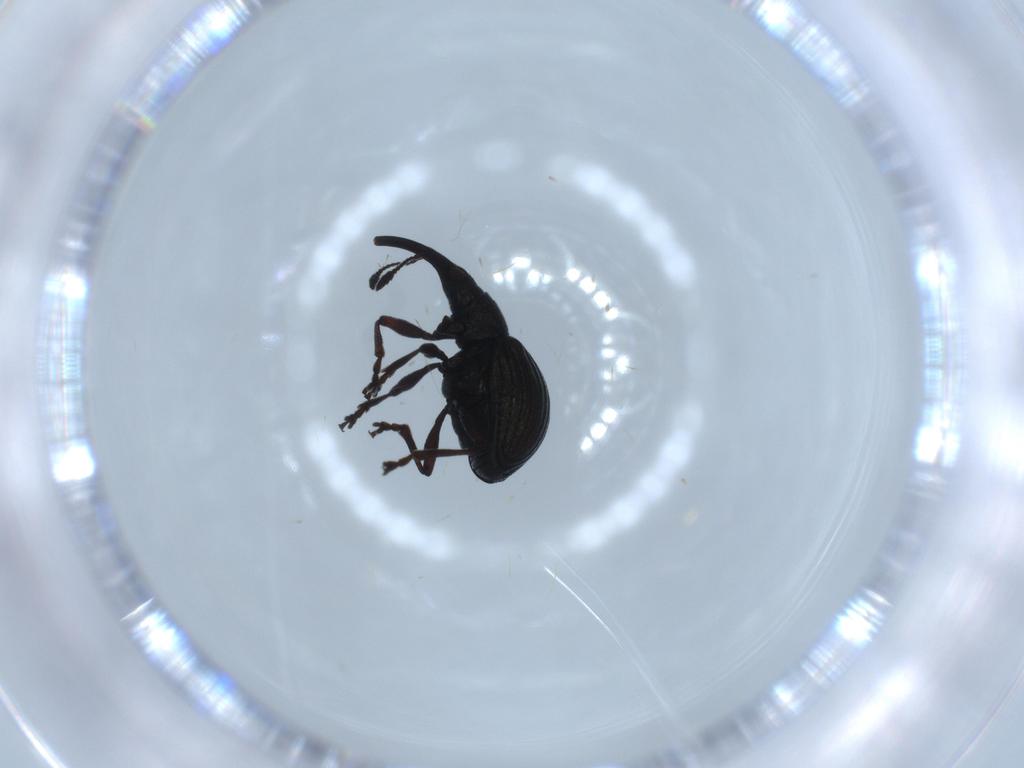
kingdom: Animalia
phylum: Arthropoda
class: Insecta
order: Coleoptera
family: Brentidae
